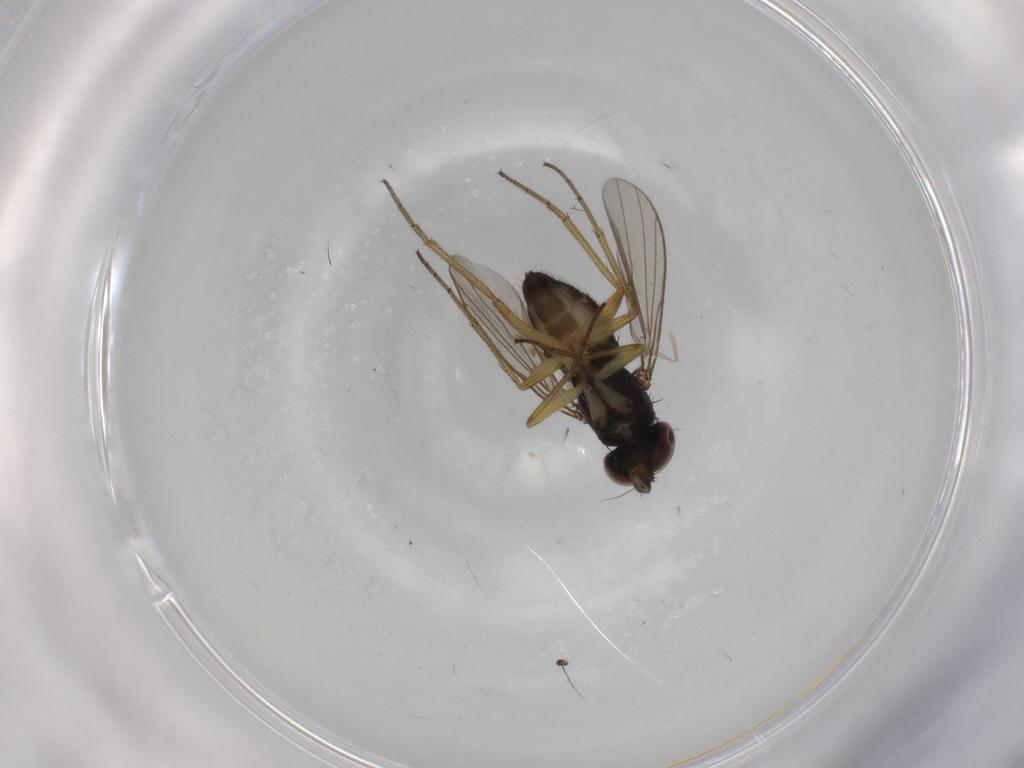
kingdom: Animalia
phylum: Arthropoda
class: Insecta
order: Diptera
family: Dolichopodidae
